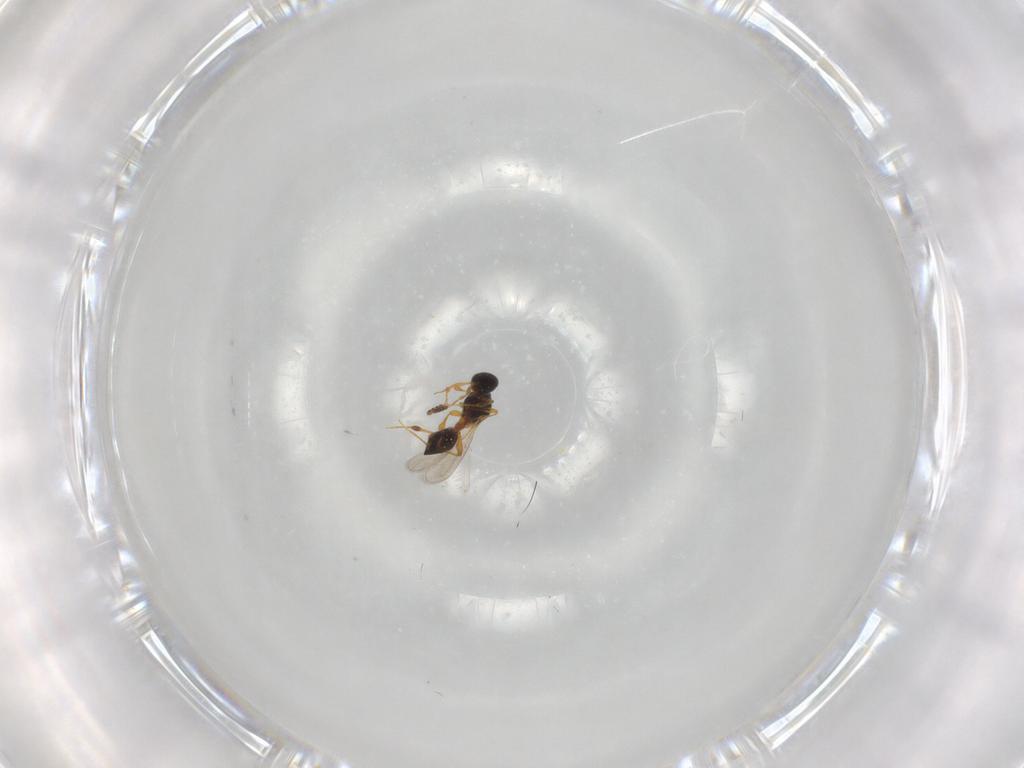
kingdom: Animalia
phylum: Arthropoda
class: Insecta
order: Hymenoptera
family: Platygastridae
